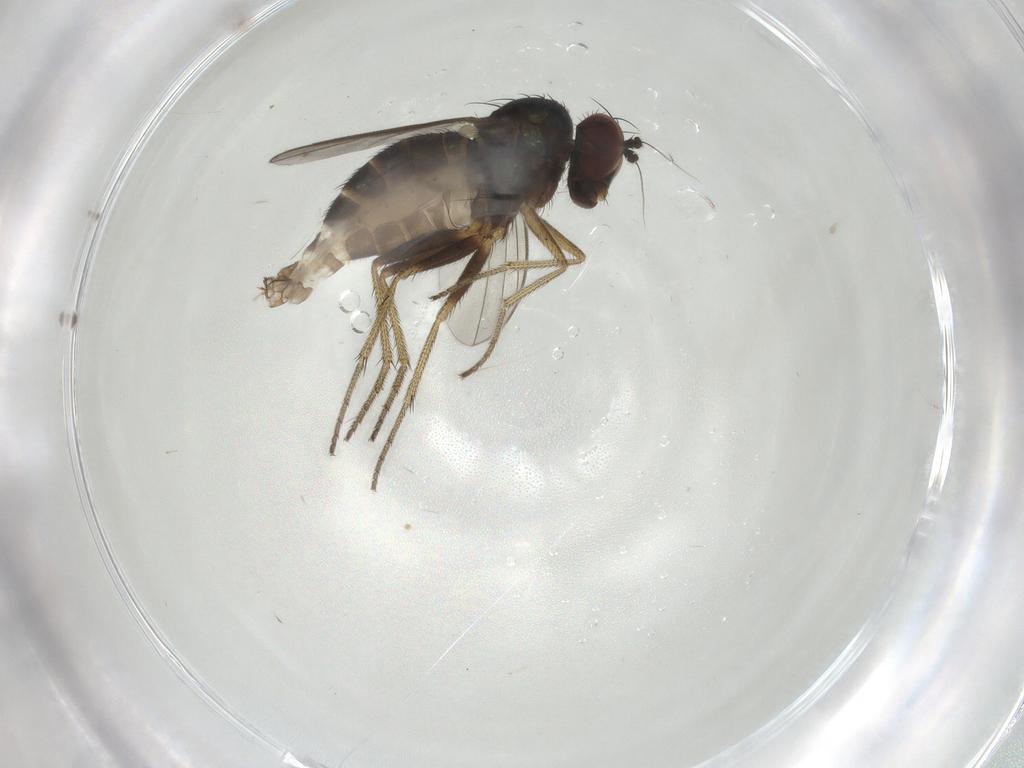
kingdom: Animalia
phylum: Arthropoda
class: Insecta
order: Diptera
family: Dolichopodidae
